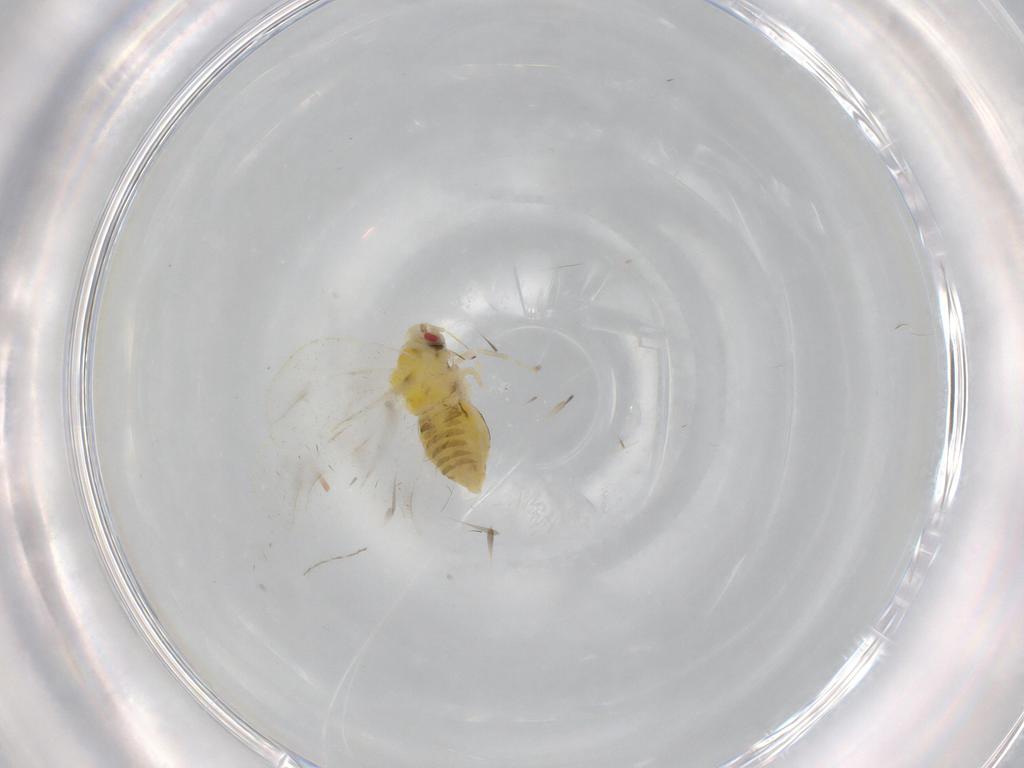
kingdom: Animalia
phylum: Arthropoda
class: Insecta
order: Hemiptera
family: Aleyrodidae
